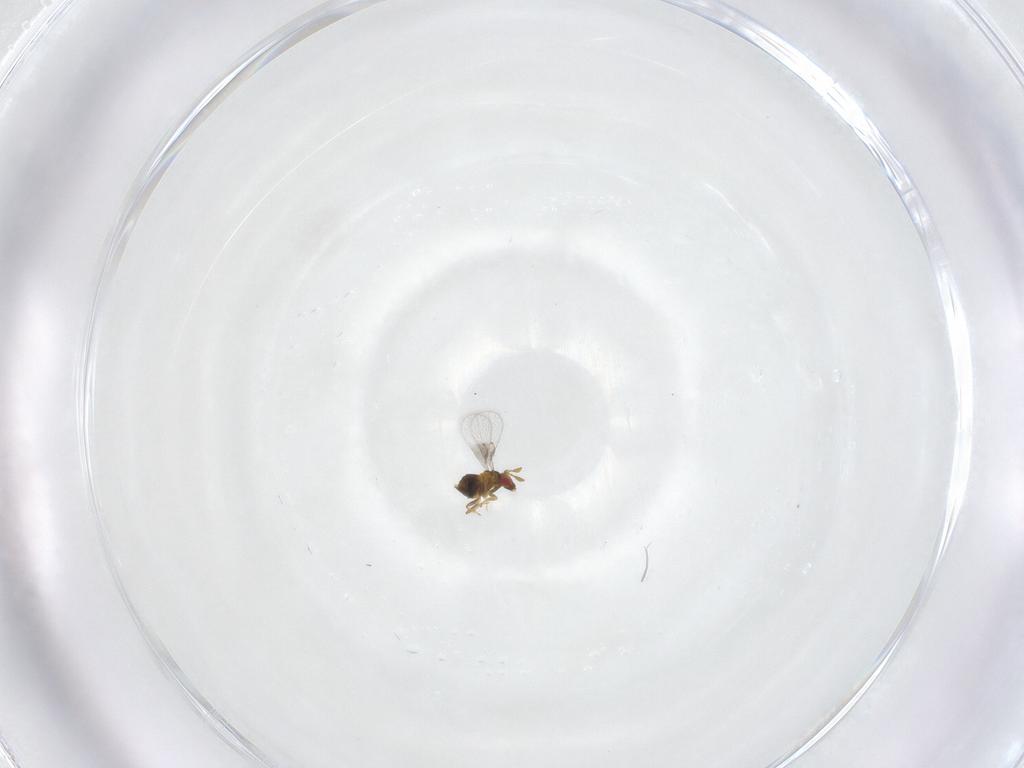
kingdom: Animalia
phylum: Arthropoda
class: Insecta
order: Hymenoptera
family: Trichogrammatidae
